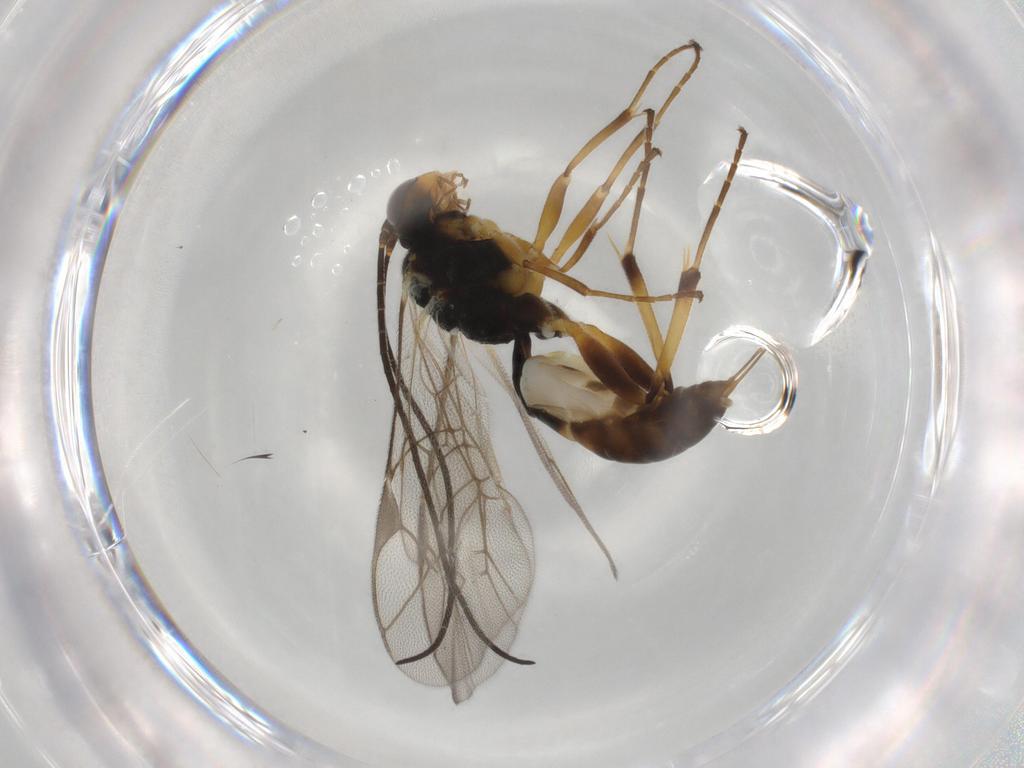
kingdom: Animalia
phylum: Arthropoda
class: Insecta
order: Hymenoptera
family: Ichneumonidae
